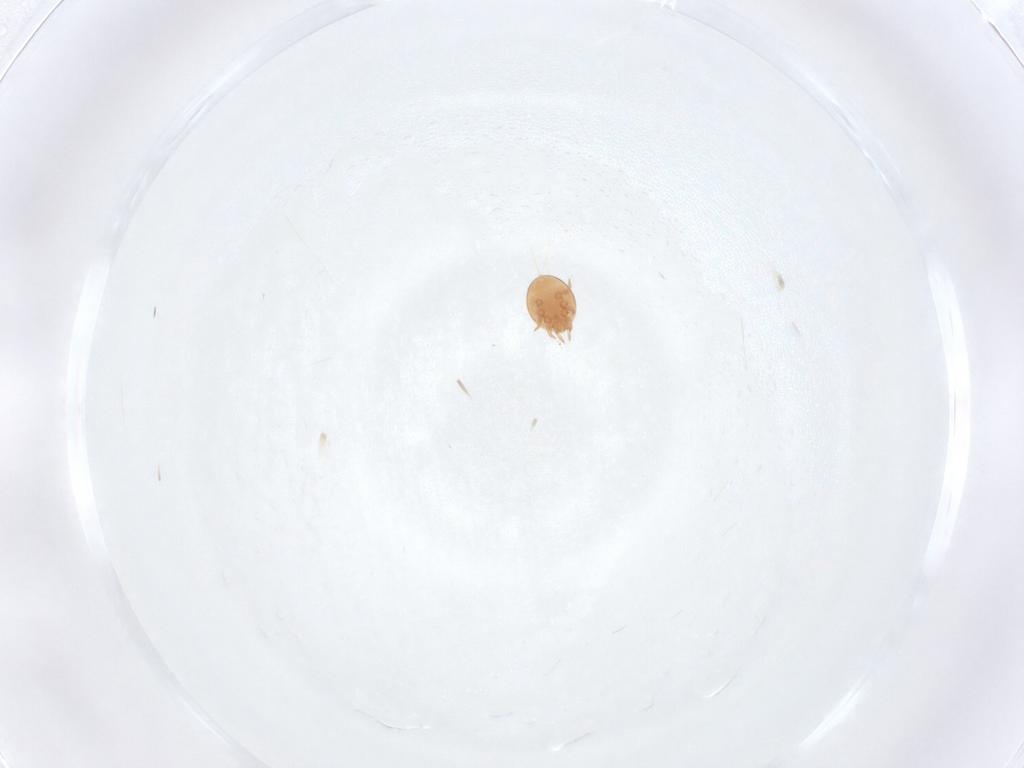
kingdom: Animalia
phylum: Arthropoda
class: Arachnida
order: Mesostigmata
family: Trematuridae
